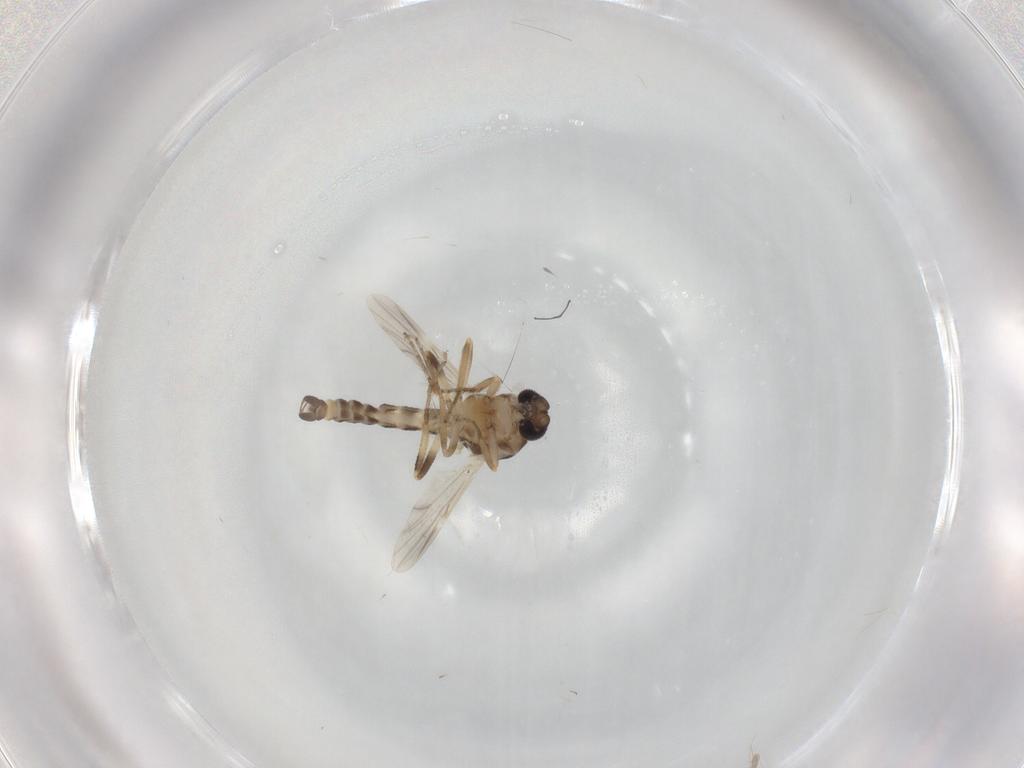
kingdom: Animalia
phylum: Arthropoda
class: Insecta
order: Diptera
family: Ceratopogonidae
